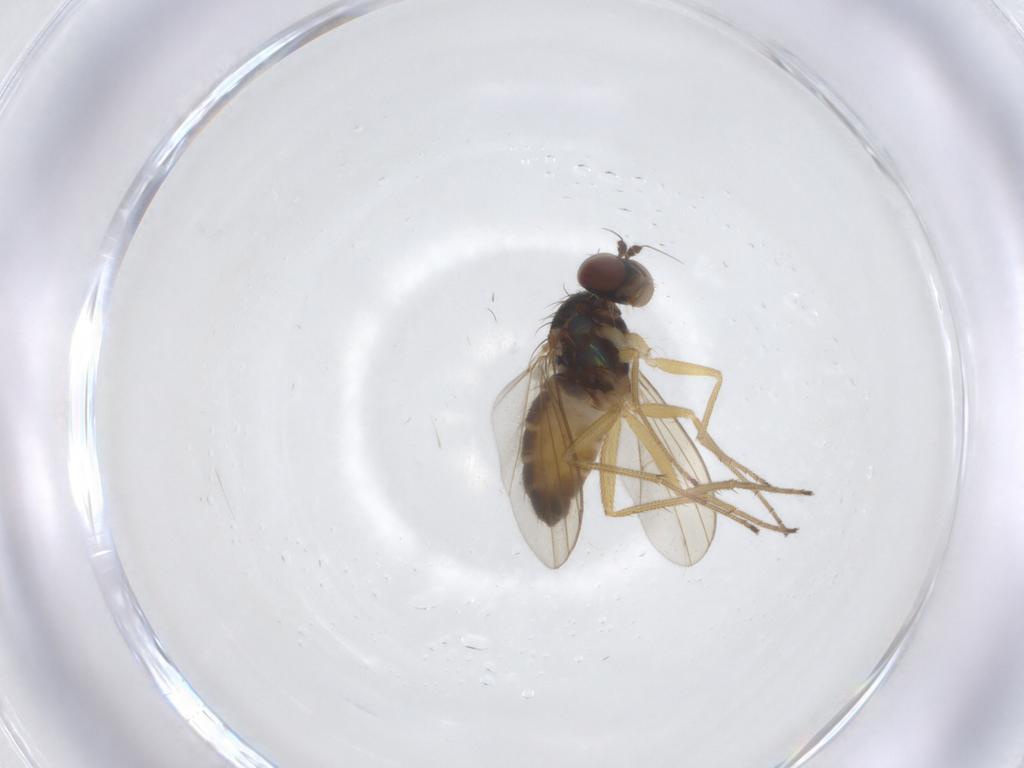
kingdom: Animalia
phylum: Arthropoda
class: Insecta
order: Diptera
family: Dolichopodidae
